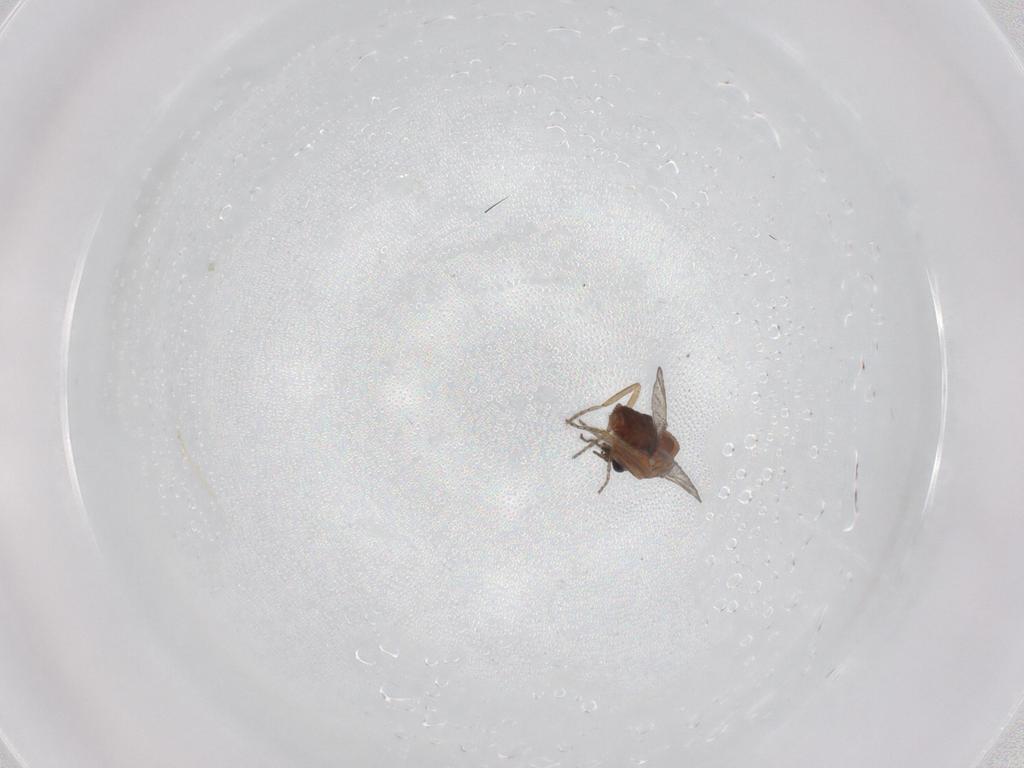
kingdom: Animalia
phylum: Arthropoda
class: Insecta
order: Diptera
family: Ceratopogonidae
